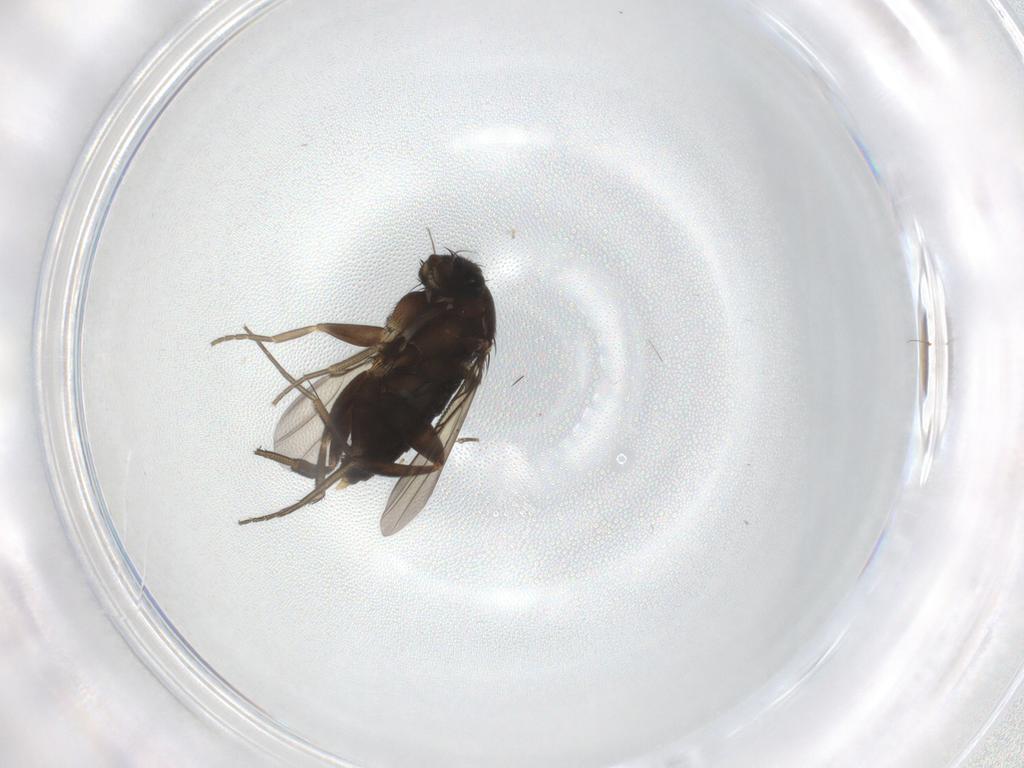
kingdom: Animalia
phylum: Arthropoda
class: Insecta
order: Diptera
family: Cecidomyiidae
